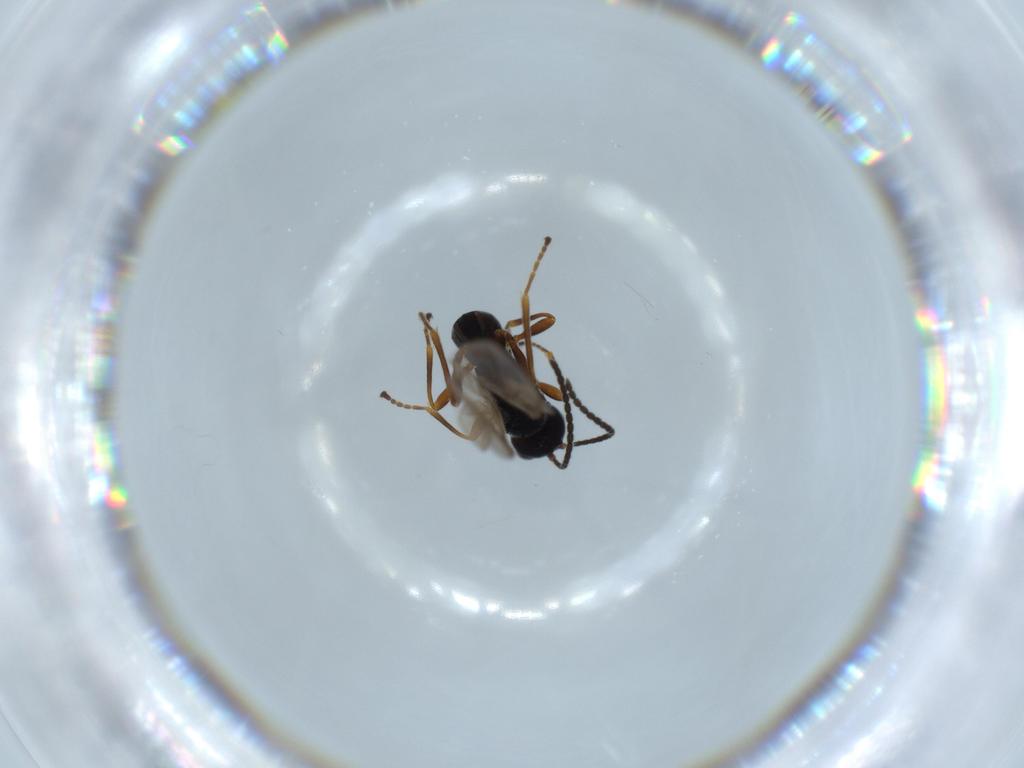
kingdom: Animalia
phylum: Arthropoda
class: Insecta
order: Hymenoptera
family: Braconidae
